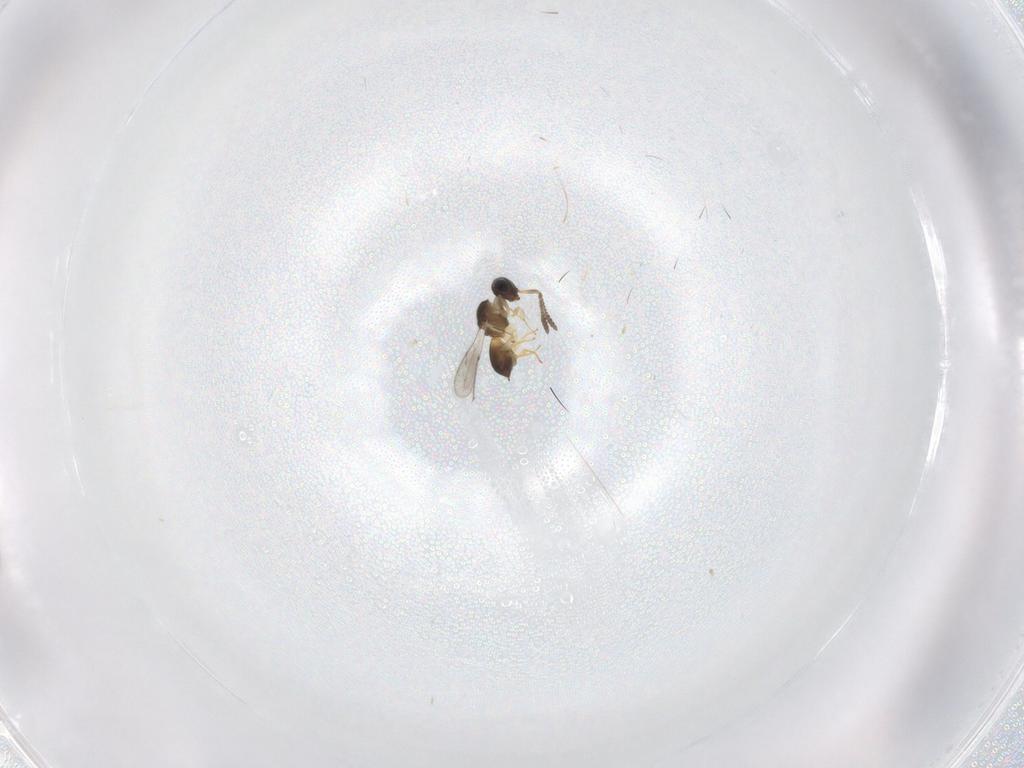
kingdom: Animalia
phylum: Arthropoda
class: Insecta
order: Hymenoptera
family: Scelionidae
